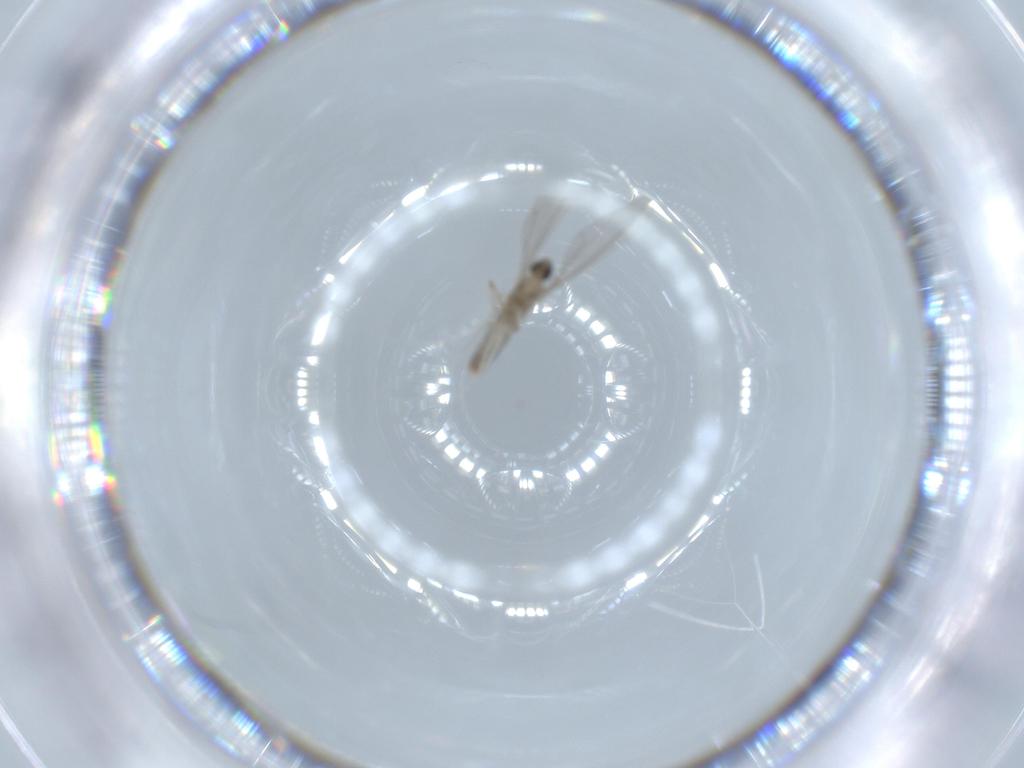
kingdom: Animalia
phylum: Arthropoda
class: Insecta
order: Diptera
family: Cecidomyiidae
